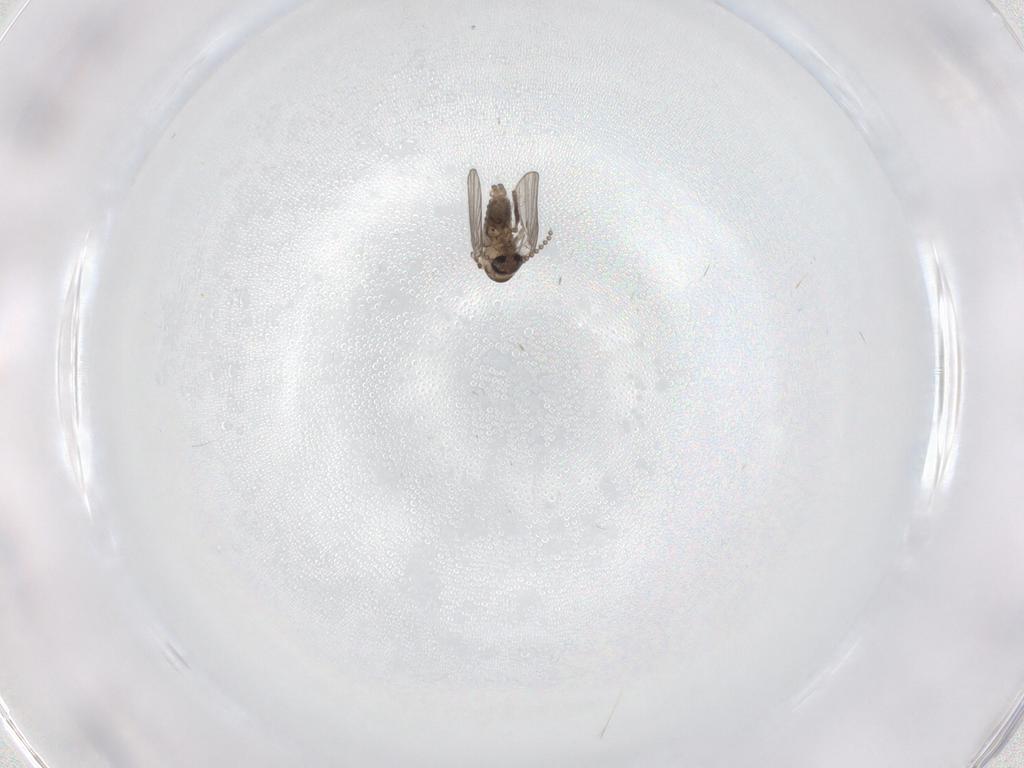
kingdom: Animalia
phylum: Arthropoda
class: Insecta
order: Diptera
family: Psychodidae
